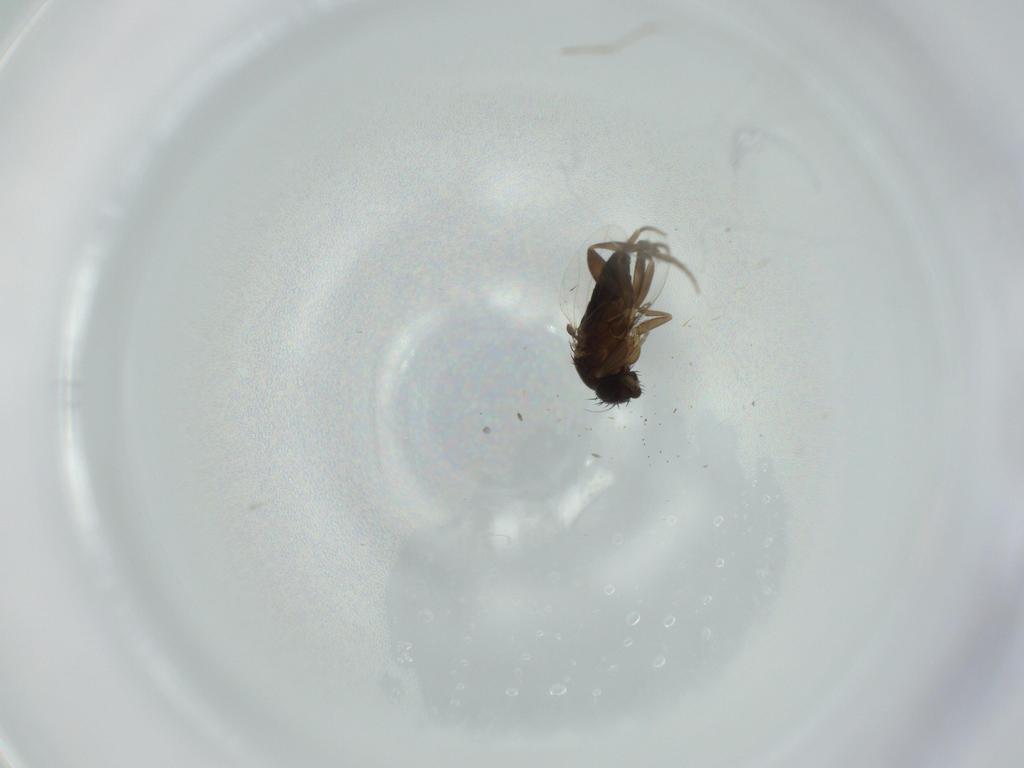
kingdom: Animalia
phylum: Arthropoda
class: Insecta
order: Diptera
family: Phoridae
